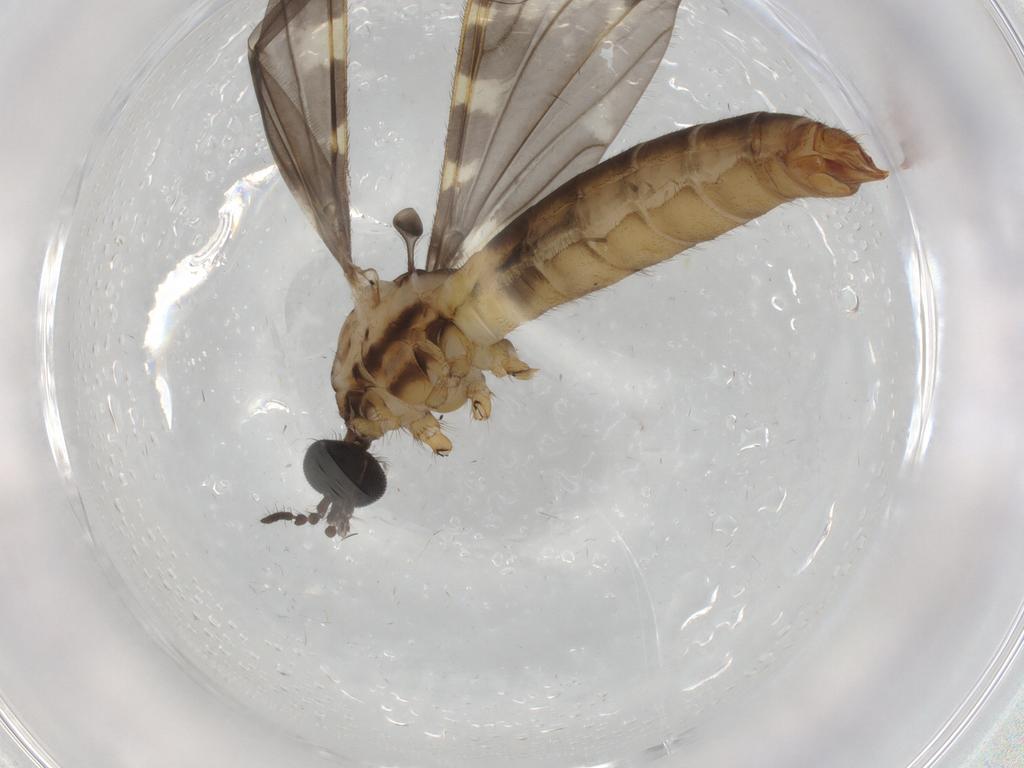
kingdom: Animalia
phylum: Arthropoda
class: Insecta
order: Diptera
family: Limoniidae
